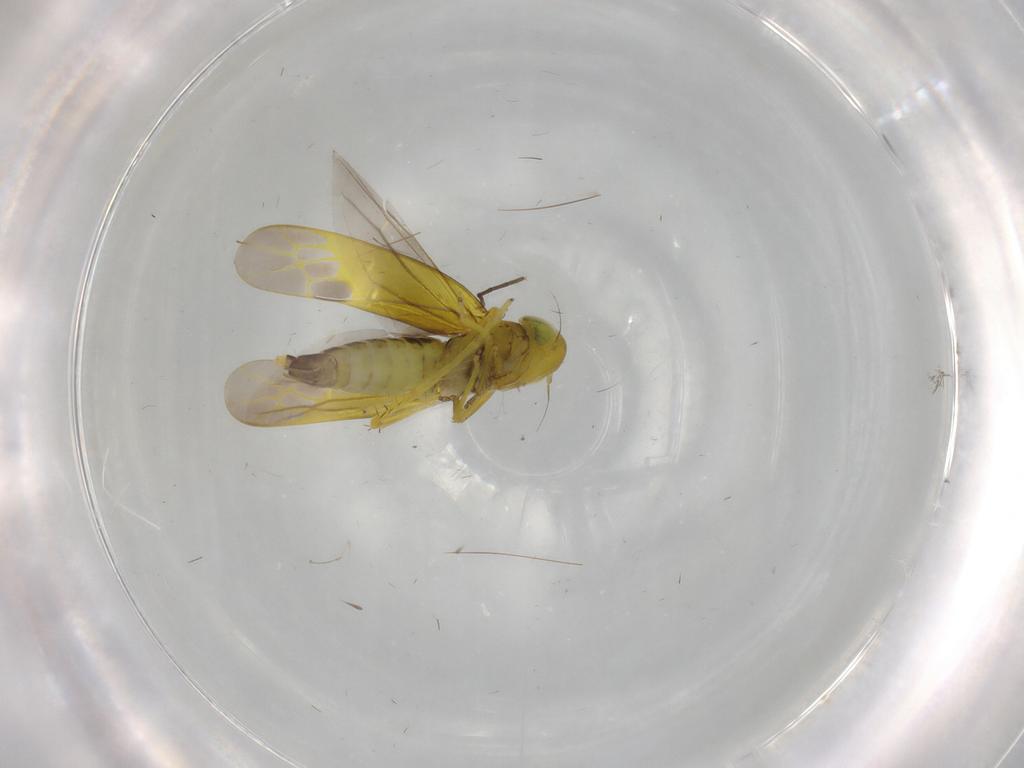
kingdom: Animalia
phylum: Arthropoda
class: Insecta
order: Hemiptera
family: Cicadellidae
